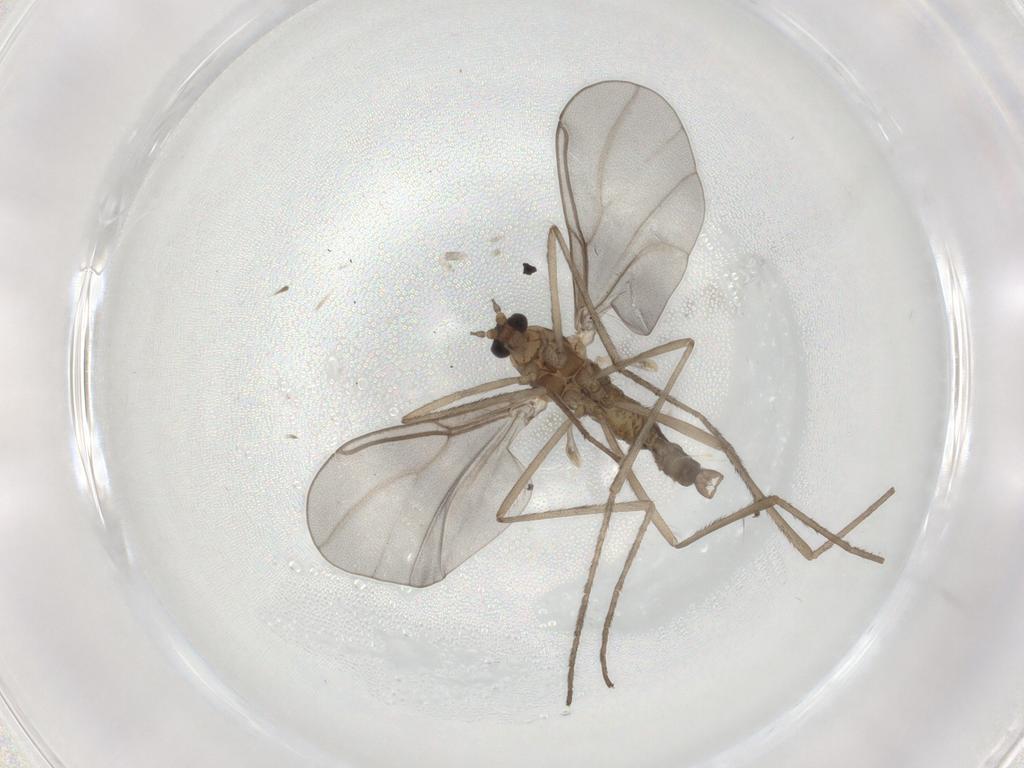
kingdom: Animalia
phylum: Arthropoda
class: Insecta
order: Diptera
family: Cecidomyiidae
